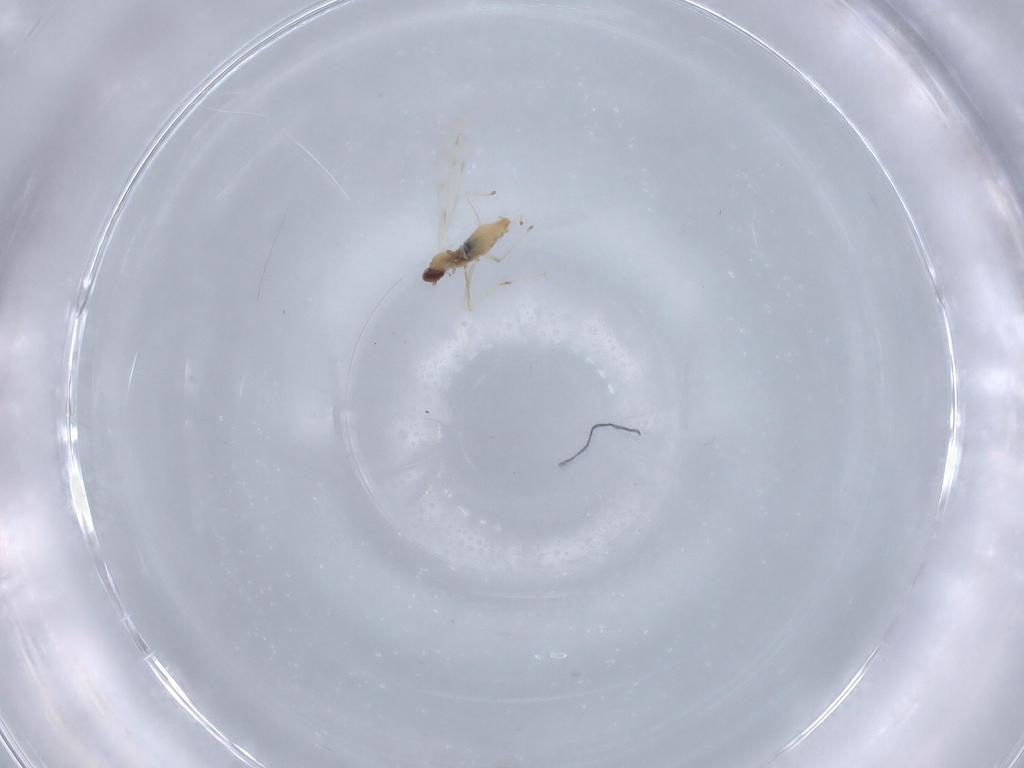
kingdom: Animalia
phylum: Arthropoda
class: Insecta
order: Diptera
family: Cecidomyiidae
